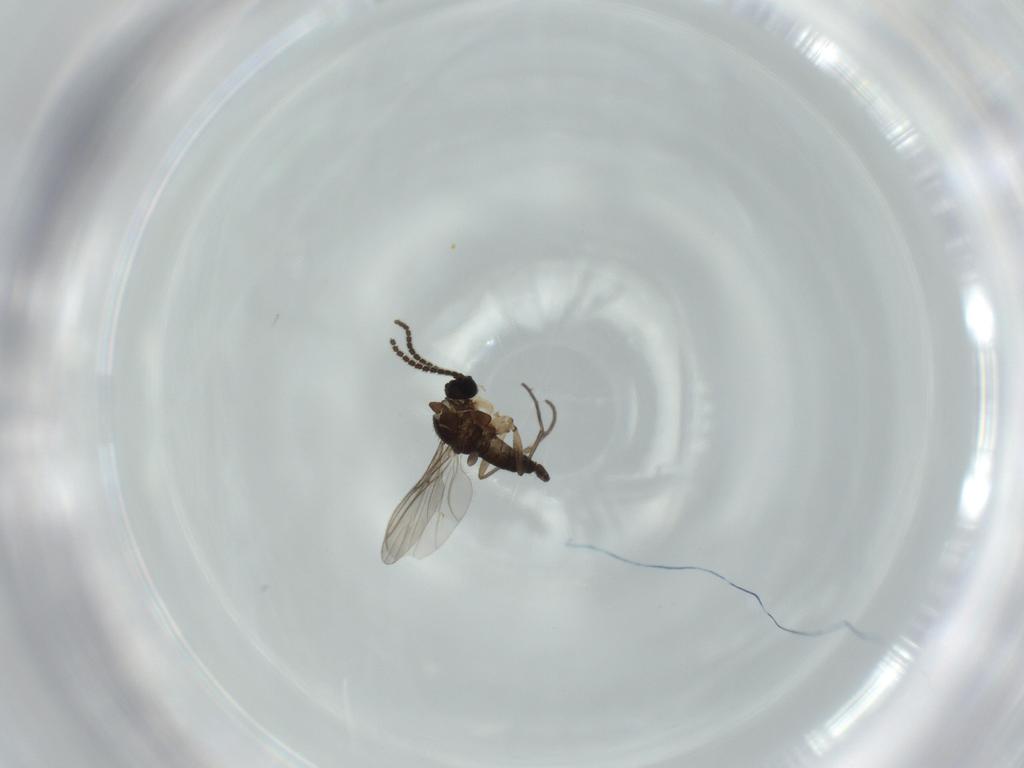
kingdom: Animalia
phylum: Arthropoda
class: Insecta
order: Diptera
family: Sciaridae
